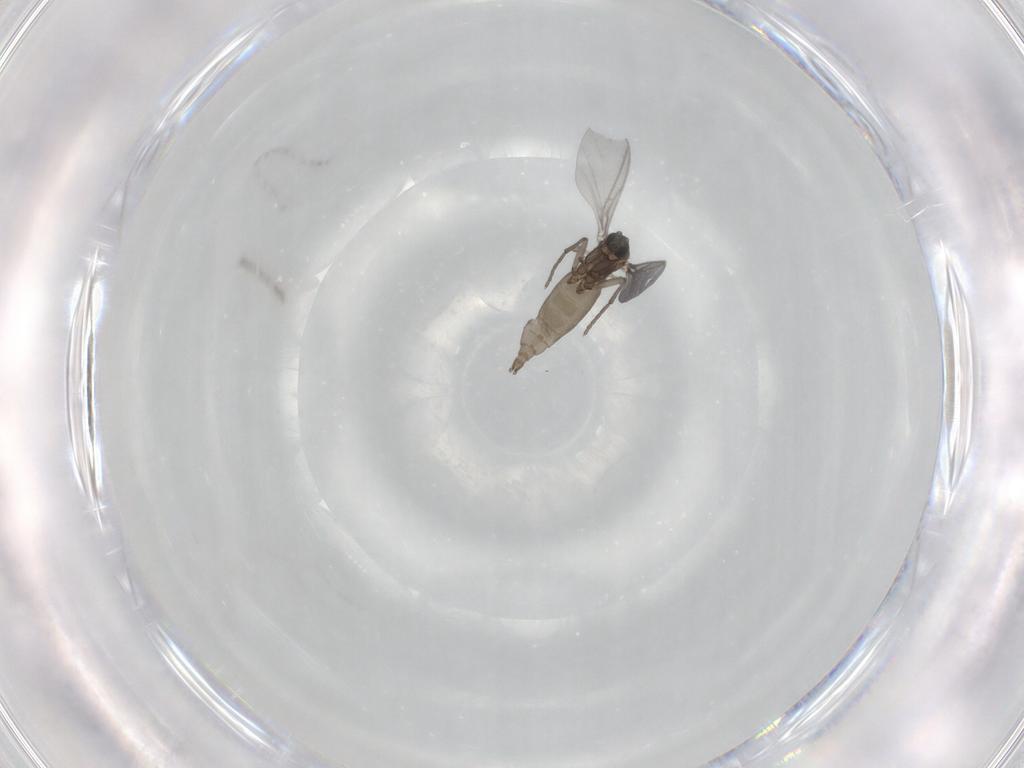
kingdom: Animalia
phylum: Arthropoda
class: Insecta
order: Diptera
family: Sciaridae
